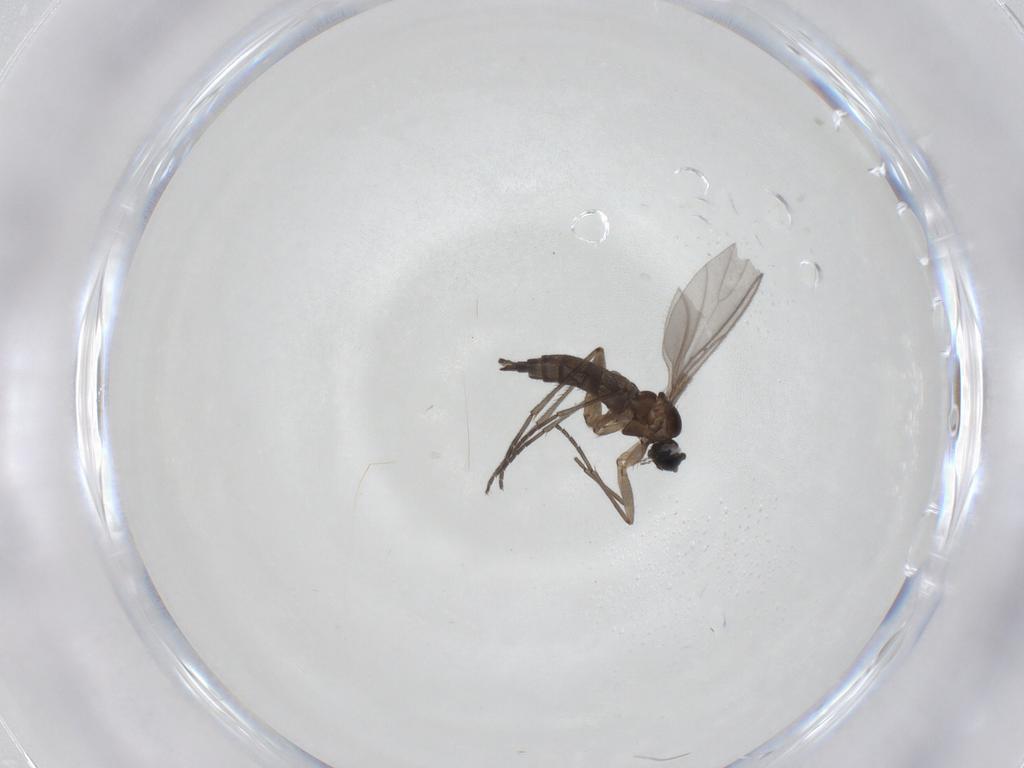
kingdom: Animalia
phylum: Arthropoda
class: Insecta
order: Diptera
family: Sciaridae
